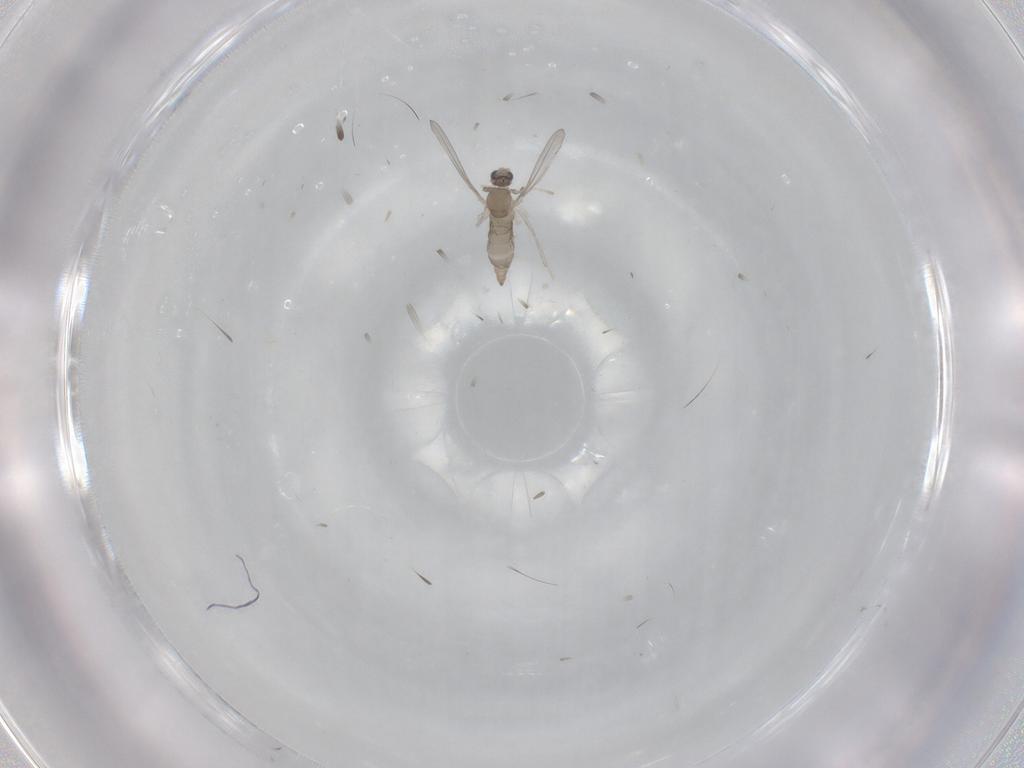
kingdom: Animalia
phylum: Arthropoda
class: Insecta
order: Diptera
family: Cecidomyiidae
